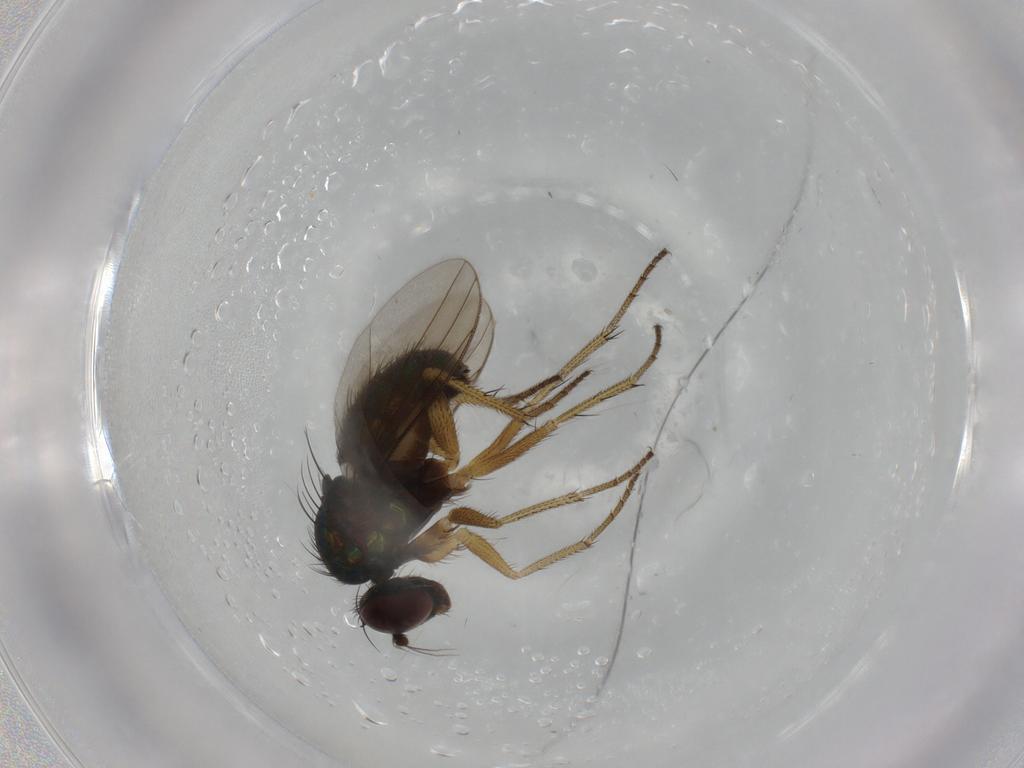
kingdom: Animalia
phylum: Arthropoda
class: Insecta
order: Diptera
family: Dolichopodidae
